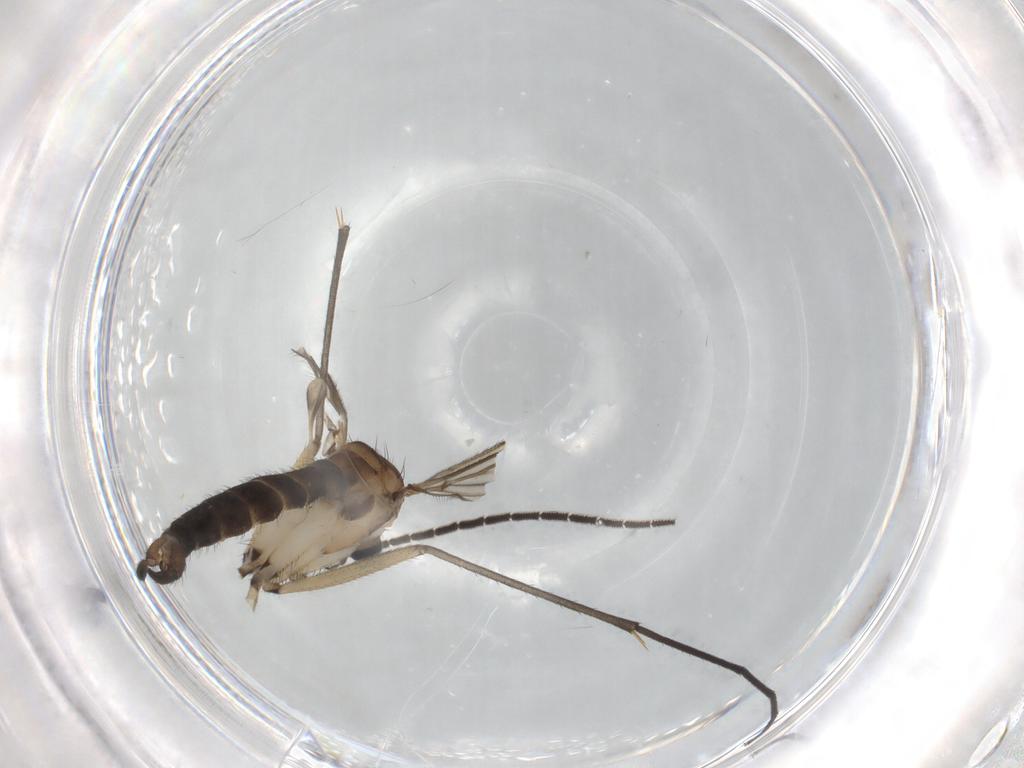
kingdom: Animalia
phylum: Arthropoda
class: Insecta
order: Diptera
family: Sciaridae
